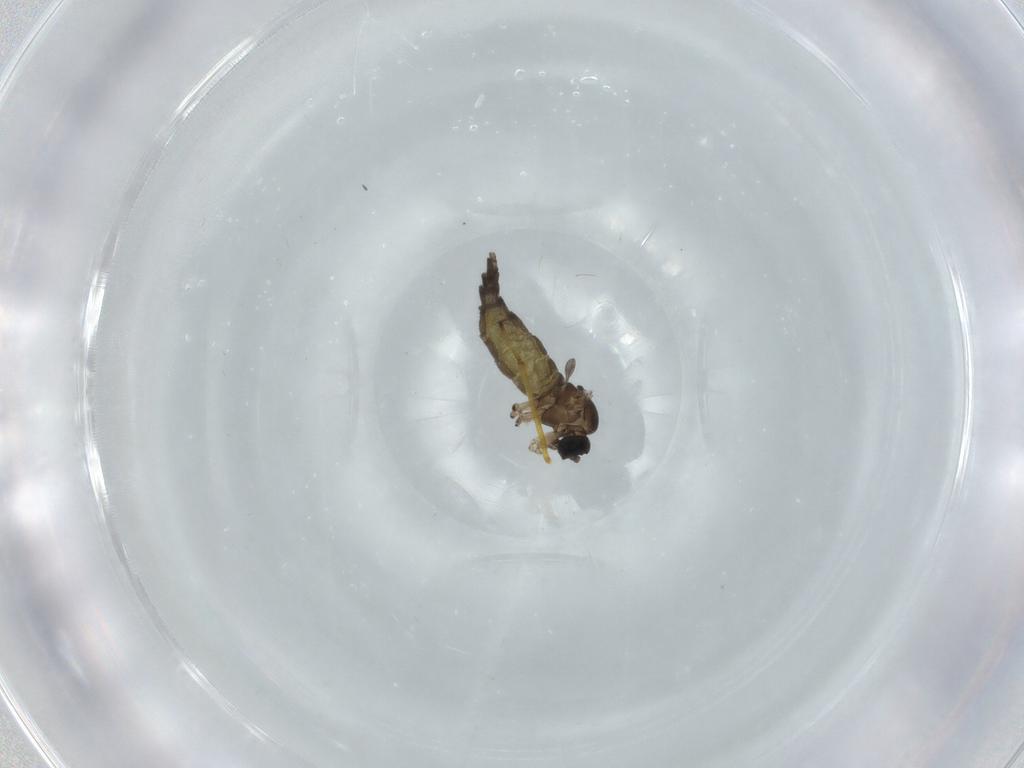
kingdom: Animalia
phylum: Arthropoda
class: Insecta
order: Diptera
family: Sciaridae
